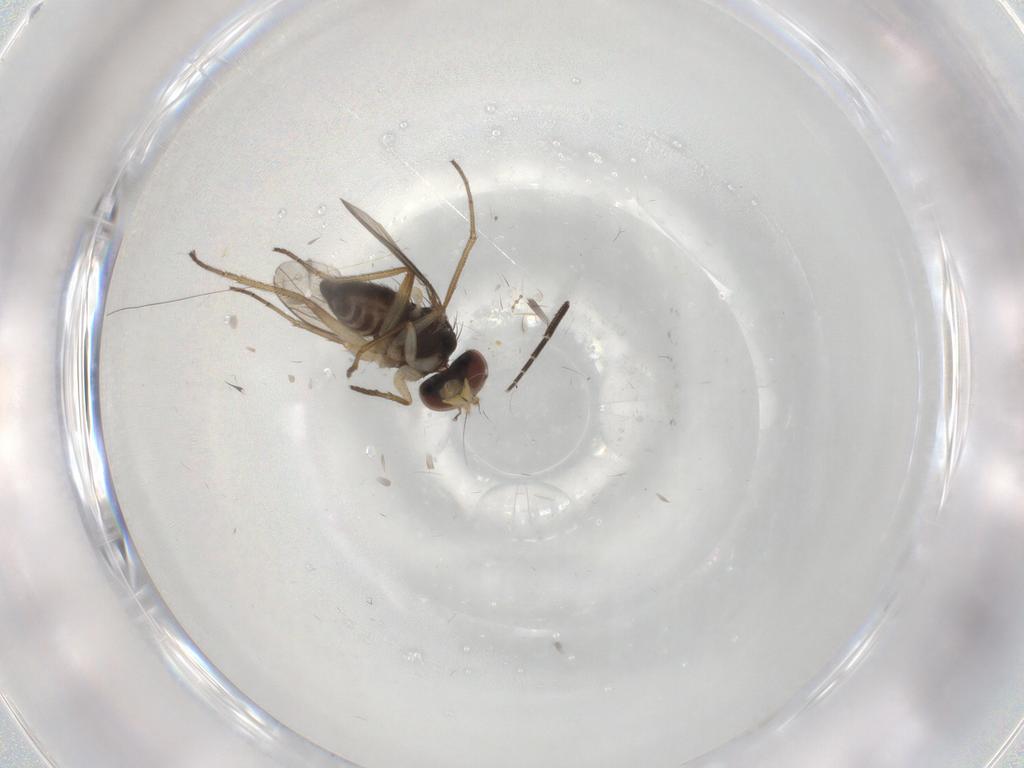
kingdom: Animalia
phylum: Arthropoda
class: Insecta
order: Diptera
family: Dolichopodidae
